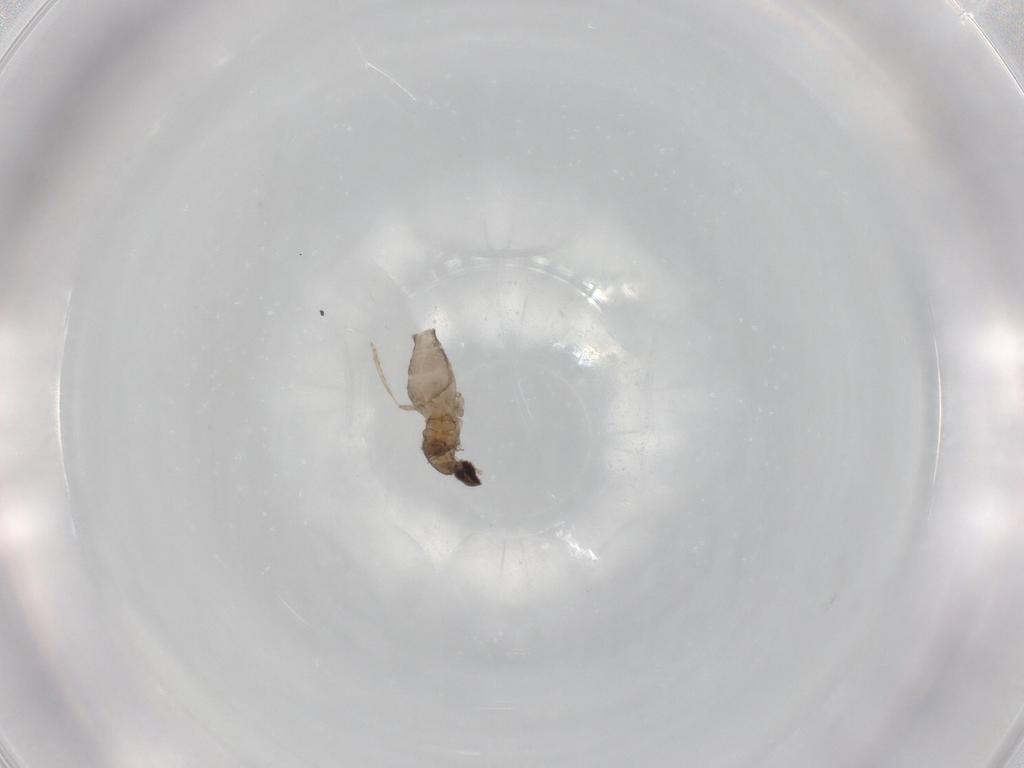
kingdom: Animalia
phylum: Arthropoda
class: Insecta
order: Diptera
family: Cecidomyiidae
